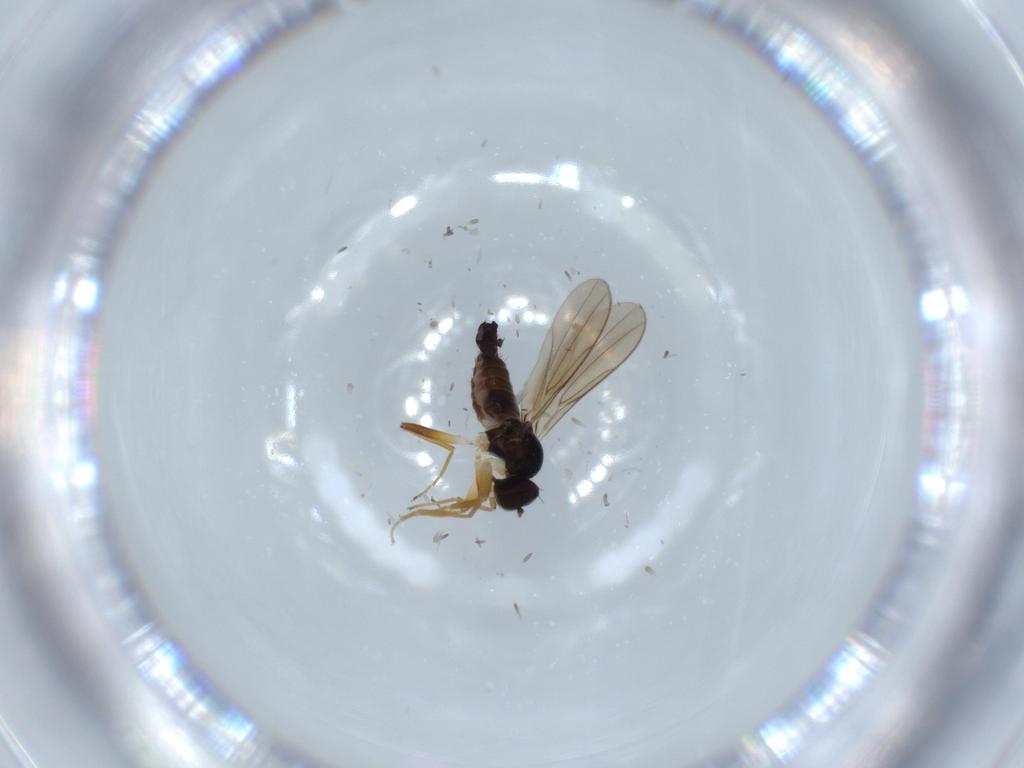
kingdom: Animalia
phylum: Arthropoda
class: Insecta
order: Diptera
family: Hybotidae
